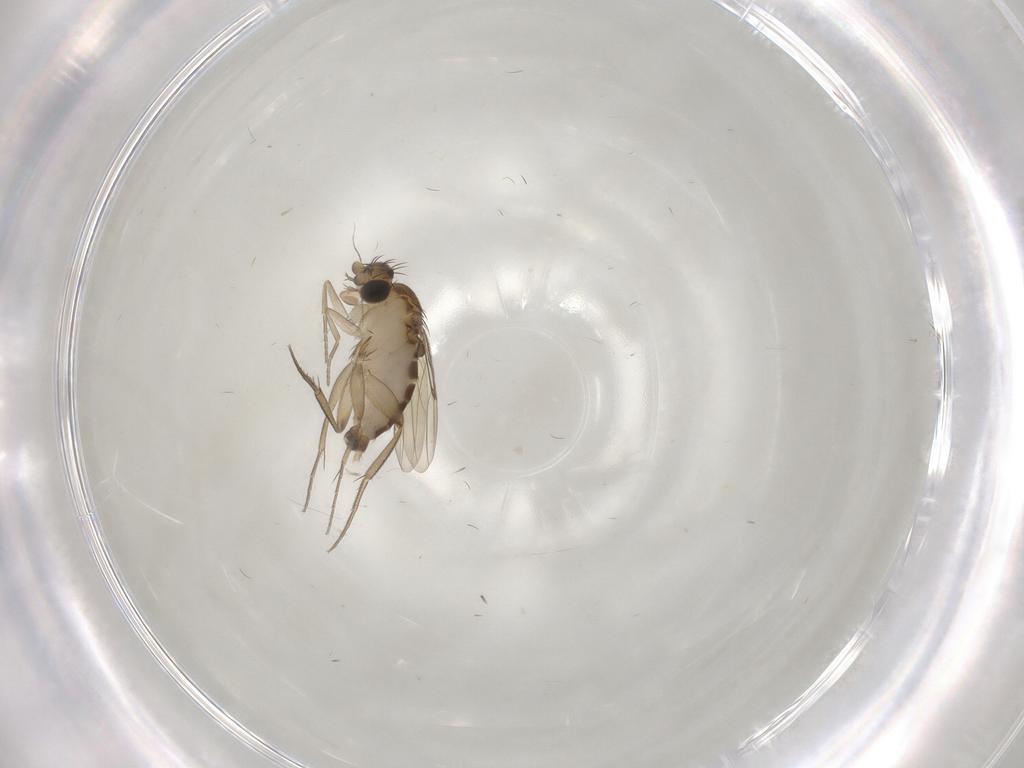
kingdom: Animalia
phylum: Arthropoda
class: Insecta
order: Diptera
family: Phoridae
